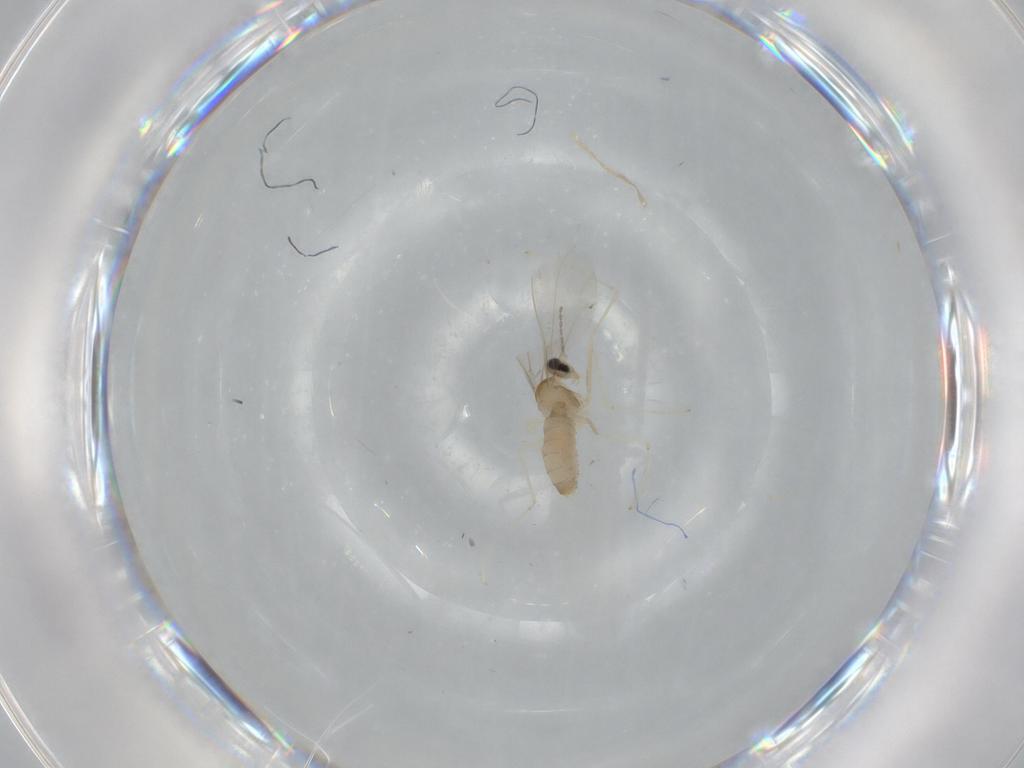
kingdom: Animalia
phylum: Arthropoda
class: Insecta
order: Diptera
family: Cecidomyiidae
